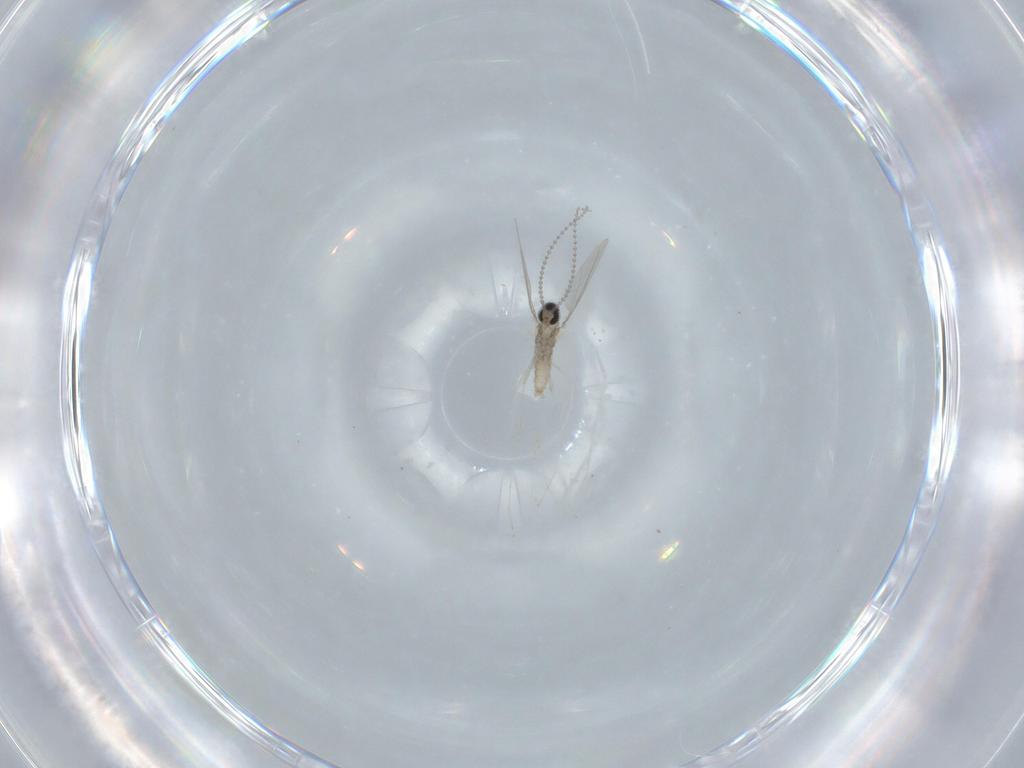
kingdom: Animalia
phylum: Arthropoda
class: Insecta
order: Diptera
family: Cecidomyiidae
